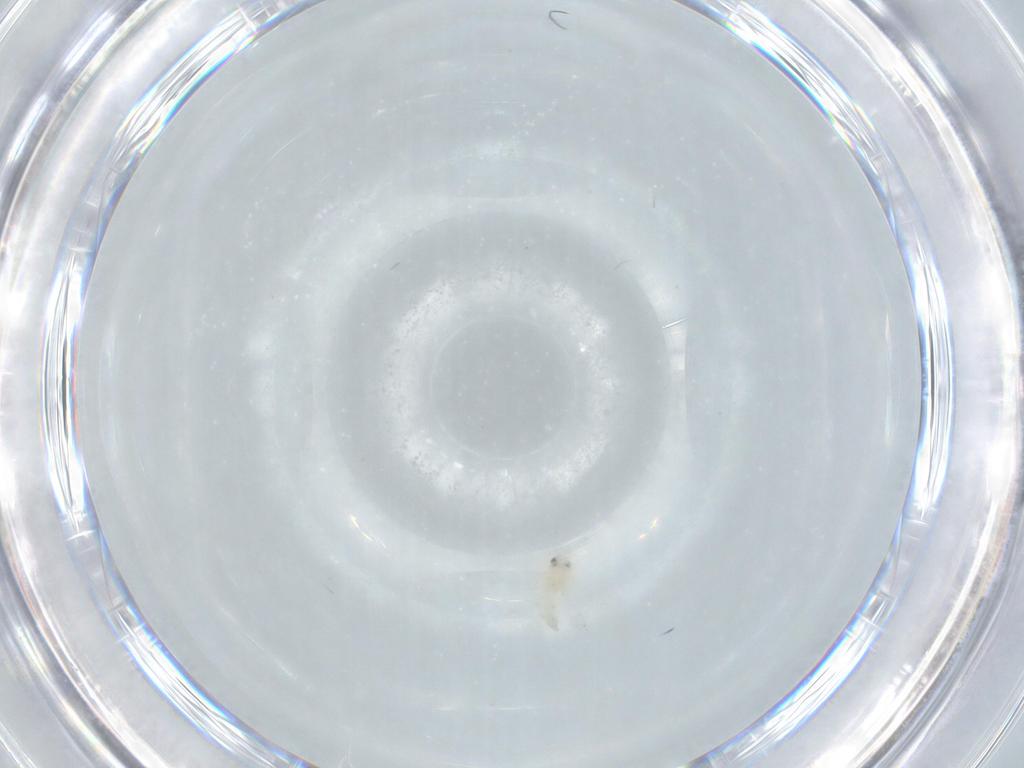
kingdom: Animalia
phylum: Arthropoda
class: Insecta
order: Hemiptera
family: Aleyrodidae
